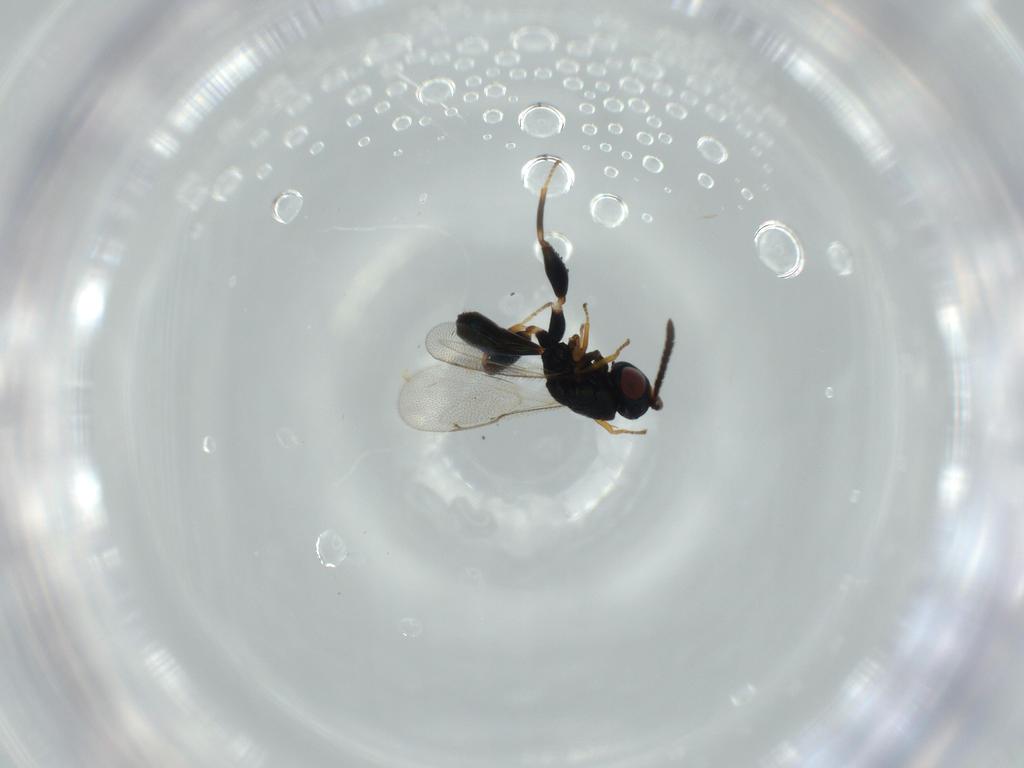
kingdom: Animalia
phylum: Arthropoda
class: Insecta
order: Hymenoptera
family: Torymidae
